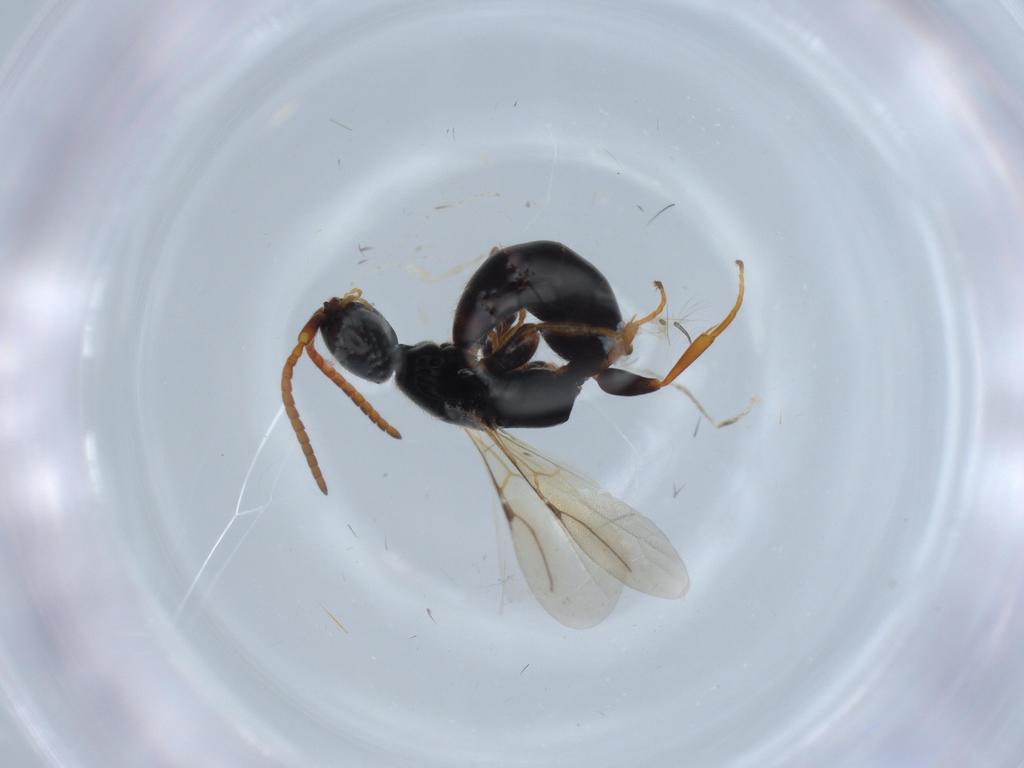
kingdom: Animalia
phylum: Arthropoda
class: Insecta
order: Hymenoptera
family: Bethylidae
